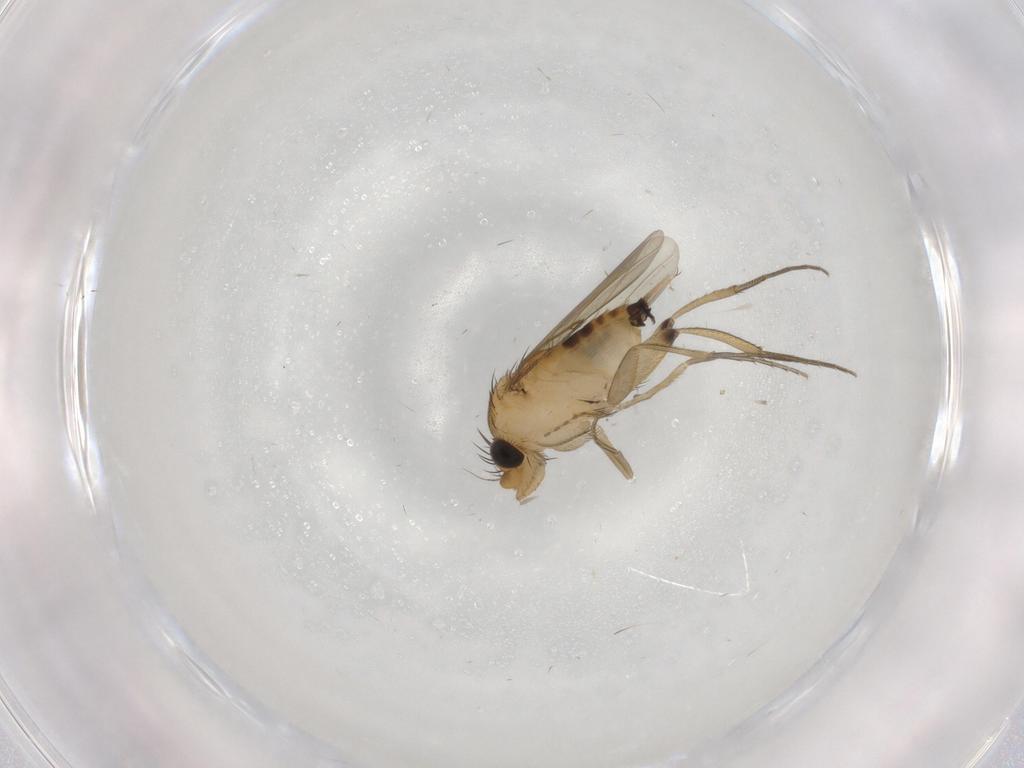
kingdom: Animalia
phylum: Arthropoda
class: Insecta
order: Diptera
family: Phoridae
